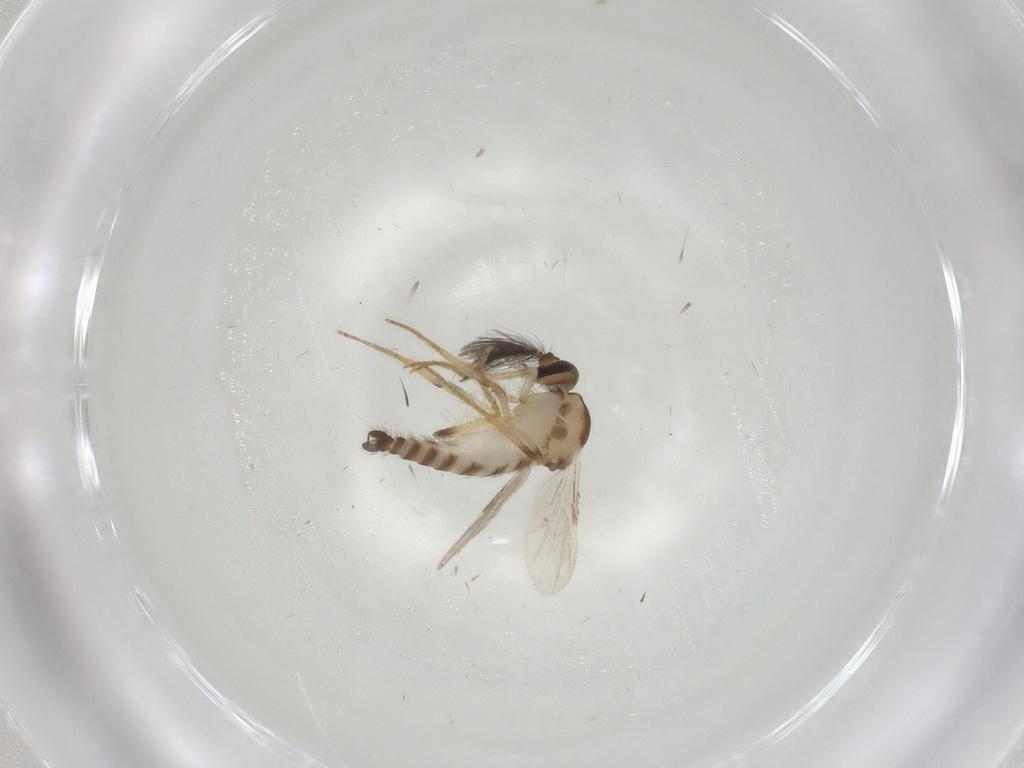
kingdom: Animalia
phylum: Arthropoda
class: Insecta
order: Diptera
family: Ceratopogonidae
